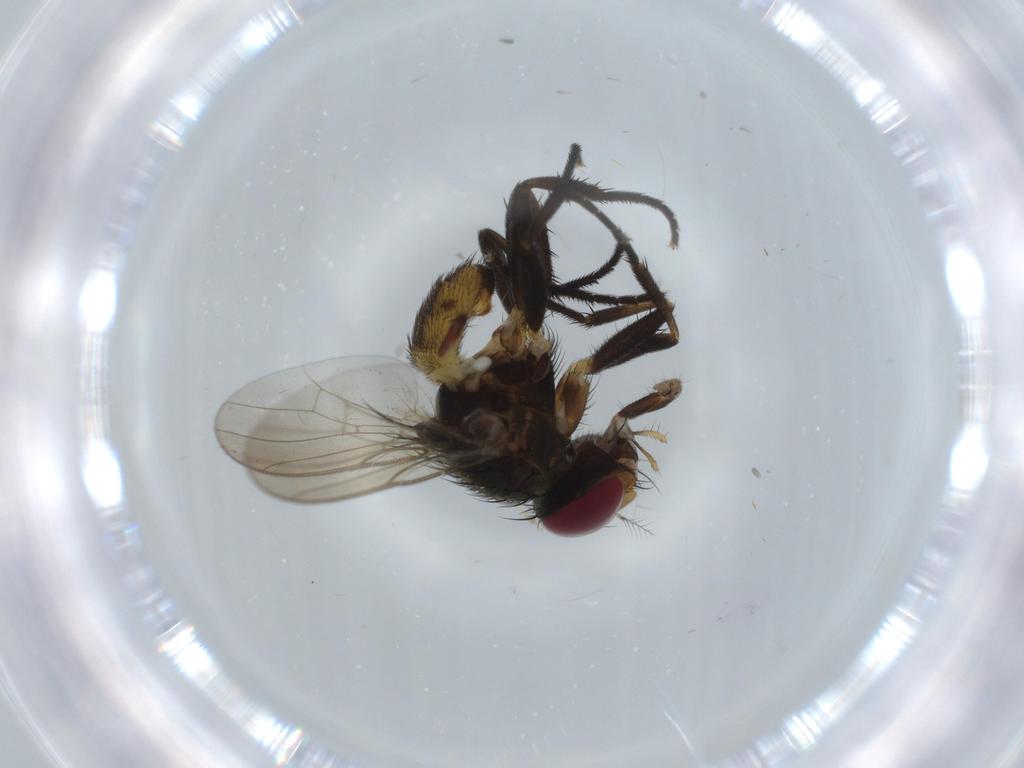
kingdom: Animalia
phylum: Arthropoda
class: Insecta
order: Diptera
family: Anthomyiidae
